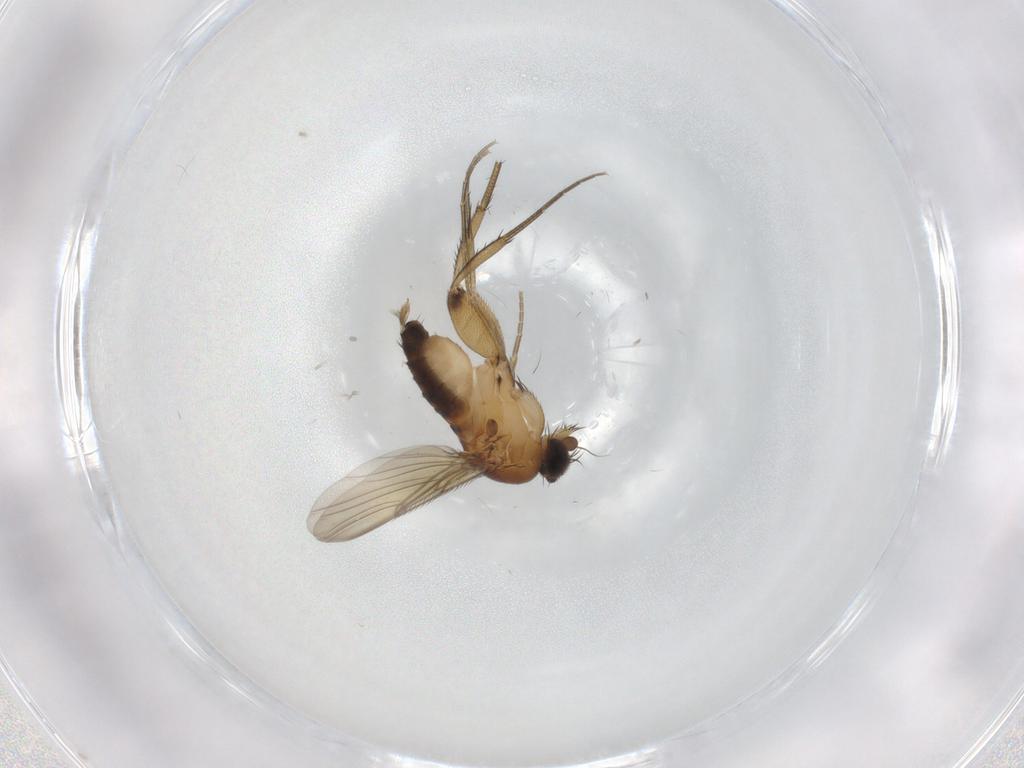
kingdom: Animalia
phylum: Arthropoda
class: Insecta
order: Diptera
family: Phoridae
